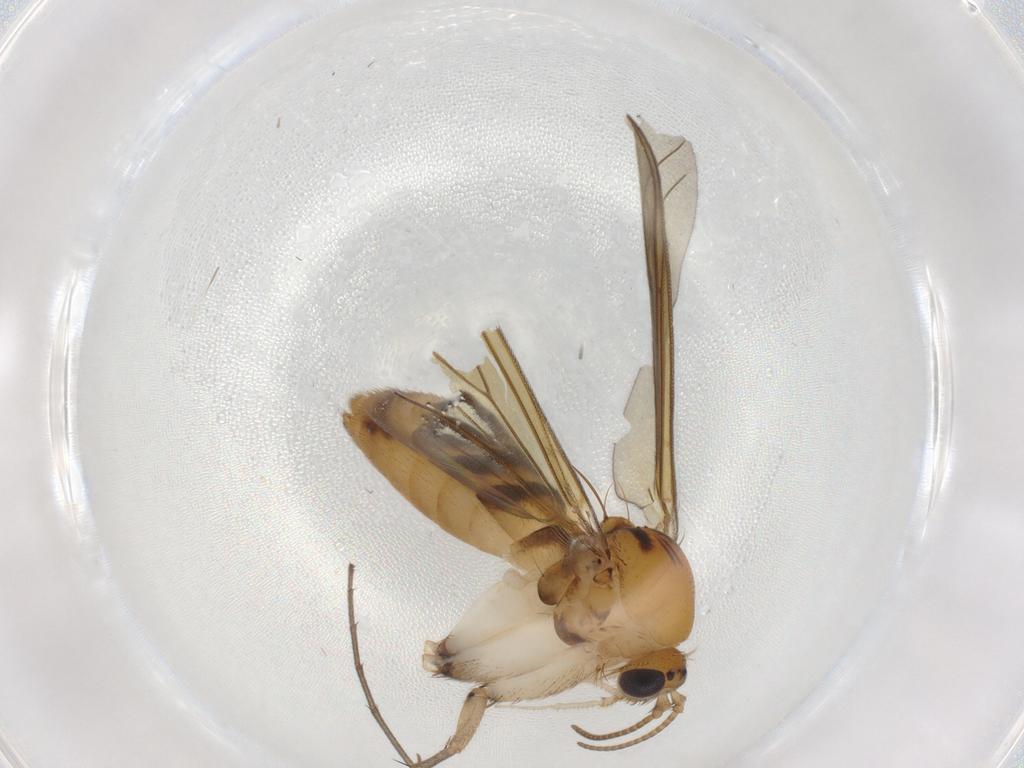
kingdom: Animalia
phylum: Arthropoda
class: Insecta
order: Diptera
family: Mycetophilidae
